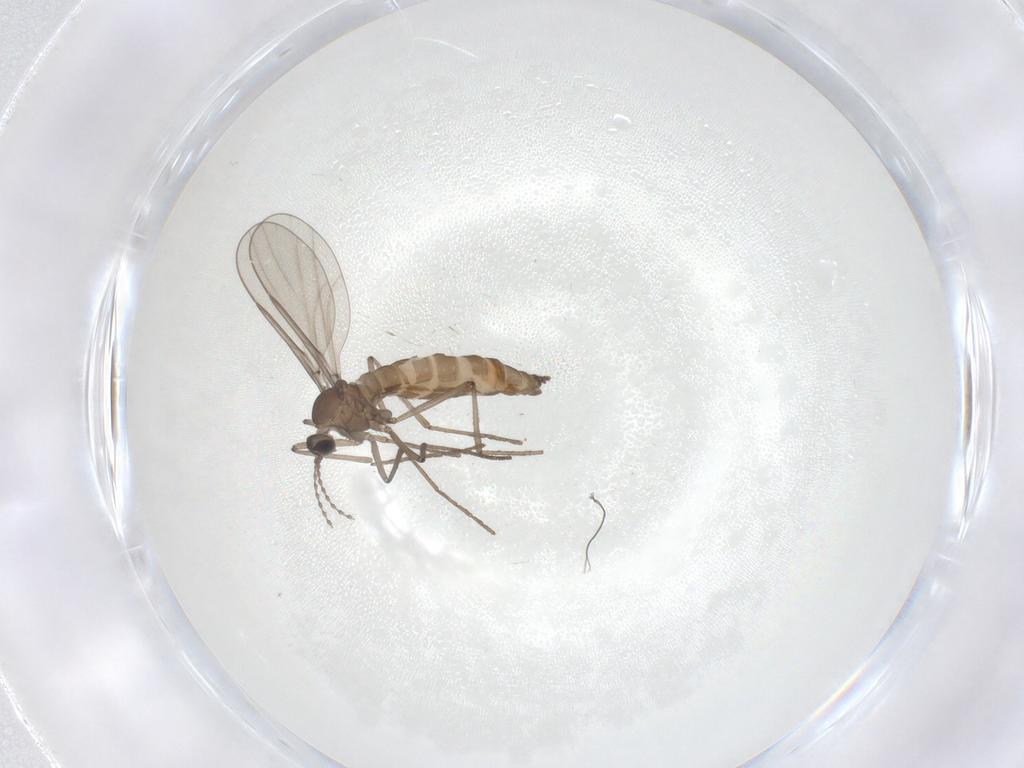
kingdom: Animalia
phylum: Arthropoda
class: Insecta
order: Diptera
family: Cecidomyiidae
